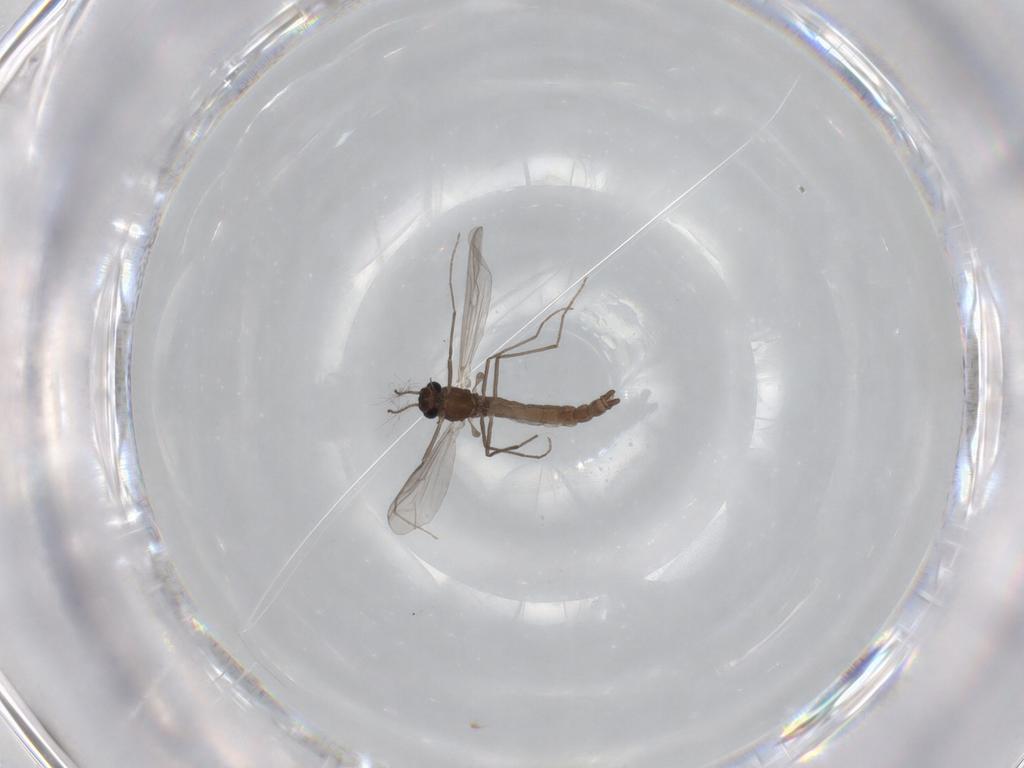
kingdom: Animalia
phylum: Arthropoda
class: Insecta
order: Diptera
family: Chironomidae
